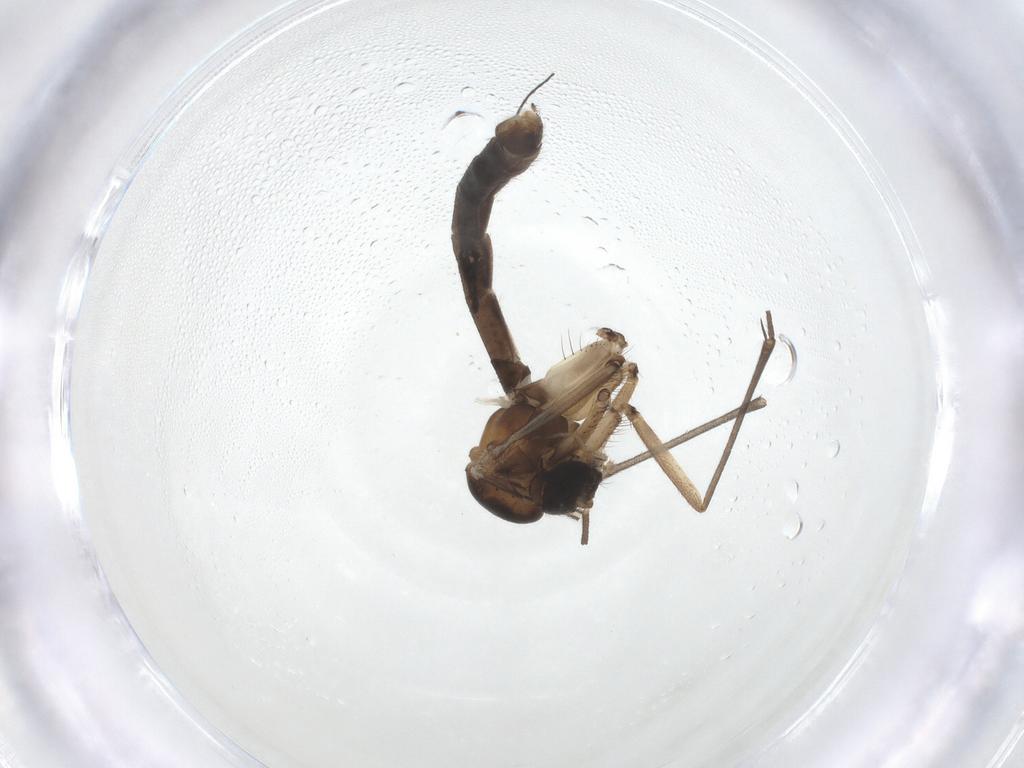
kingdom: Animalia
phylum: Arthropoda
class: Insecta
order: Diptera
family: Mycetophilidae
